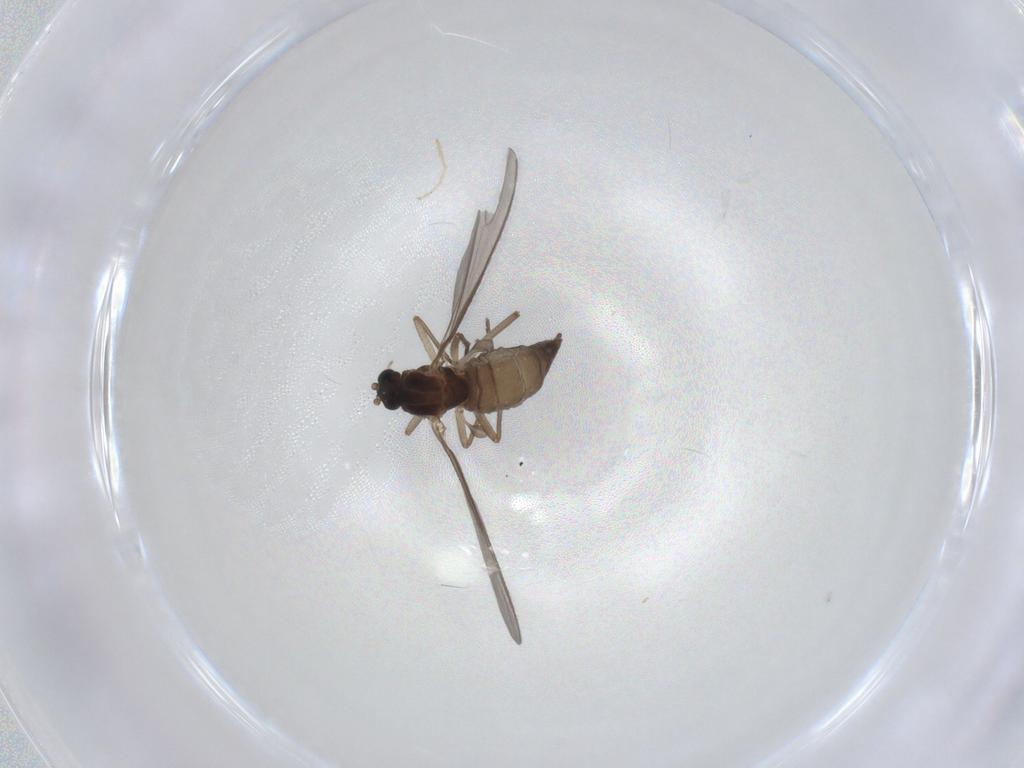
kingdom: Animalia
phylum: Arthropoda
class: Insecta
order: Diptera
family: Sciaridae
